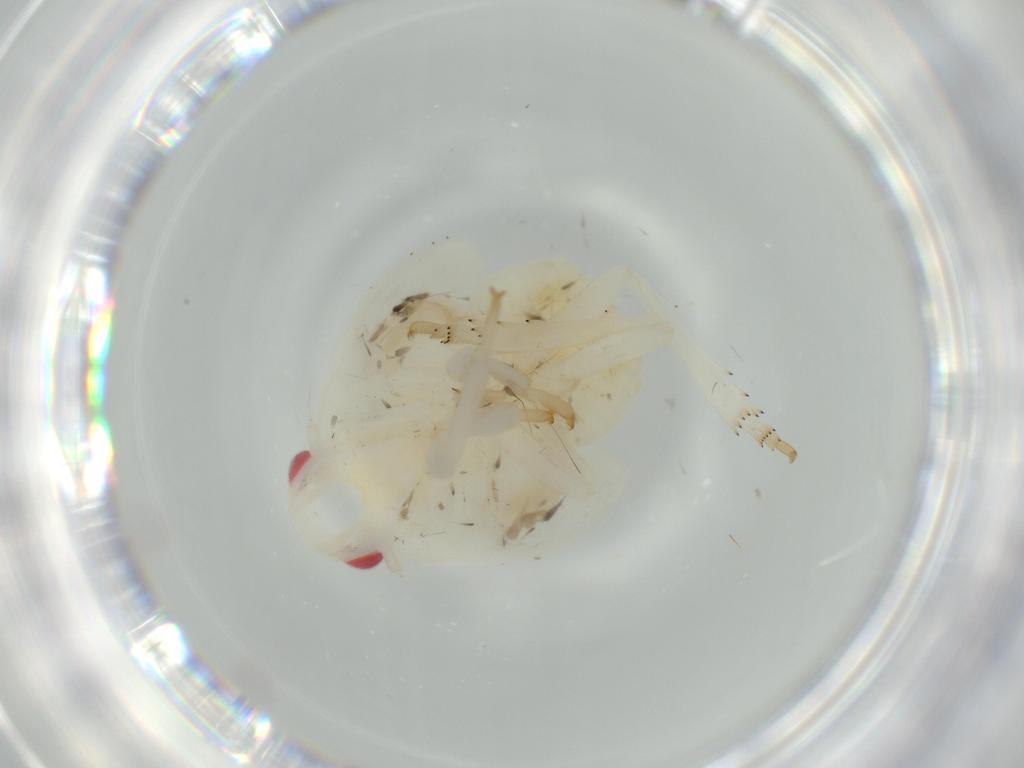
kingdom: Animalia
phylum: Arthropoda
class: Insecta
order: Hemiptera
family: Flatidae
